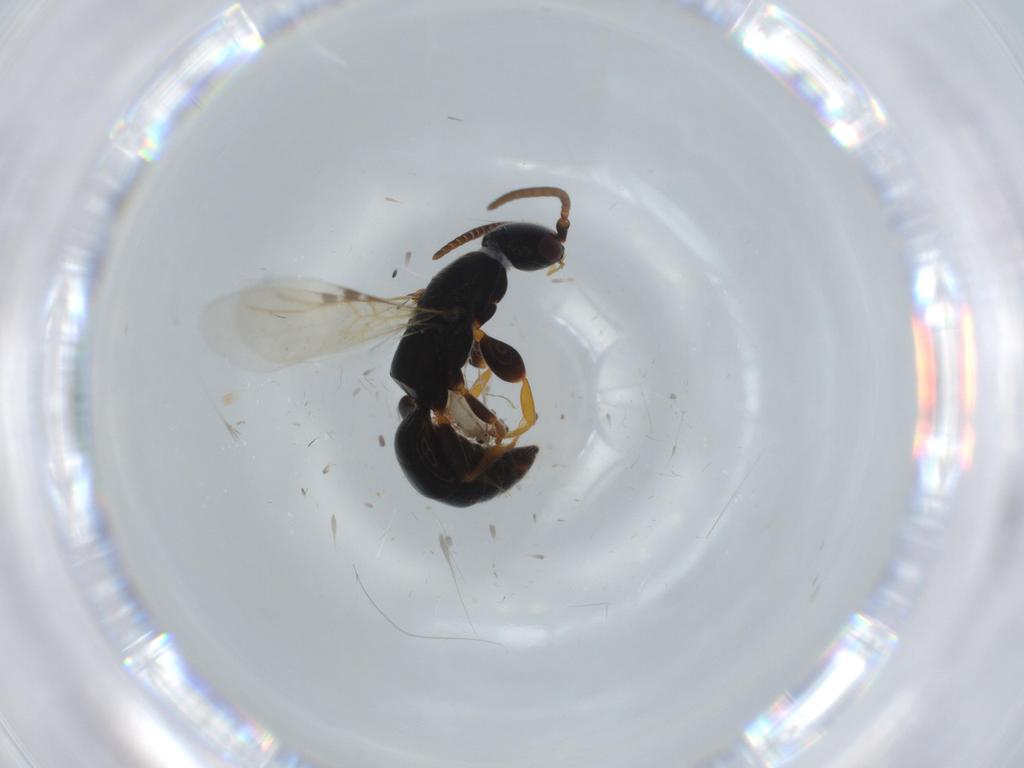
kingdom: Animalia
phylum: Arthropoda
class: Insecta
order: Hymenoptera
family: Bethylidae
